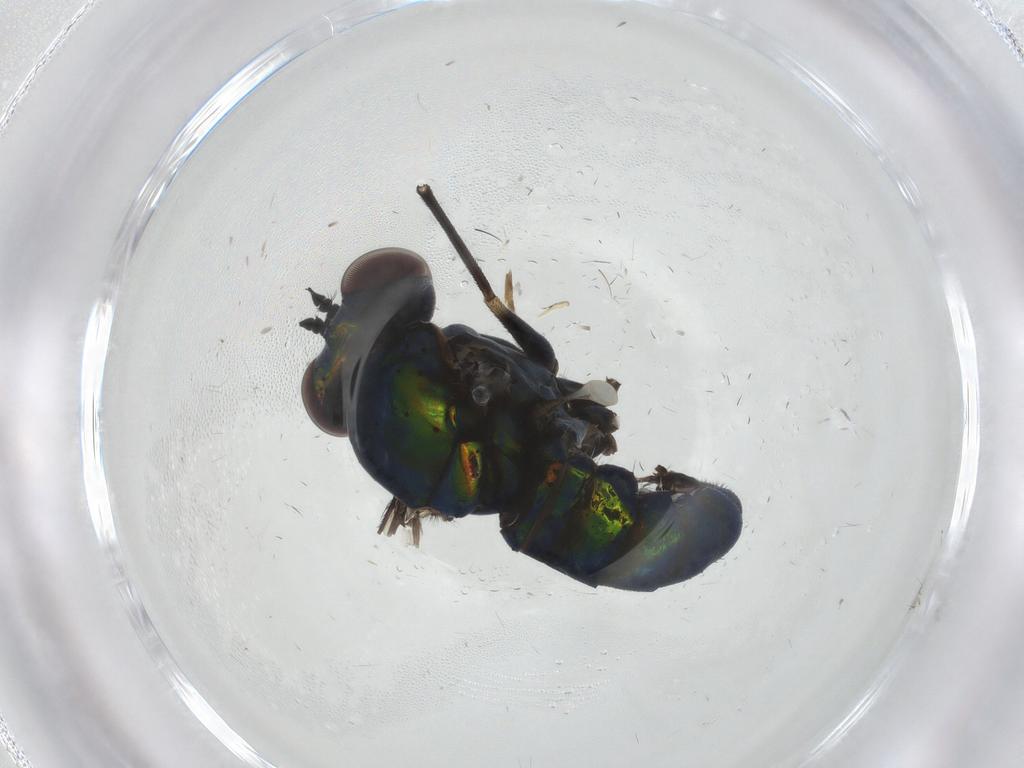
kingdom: Animalia
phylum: Arthropoda
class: Insecta
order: Diptera
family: Dolichopodidae
